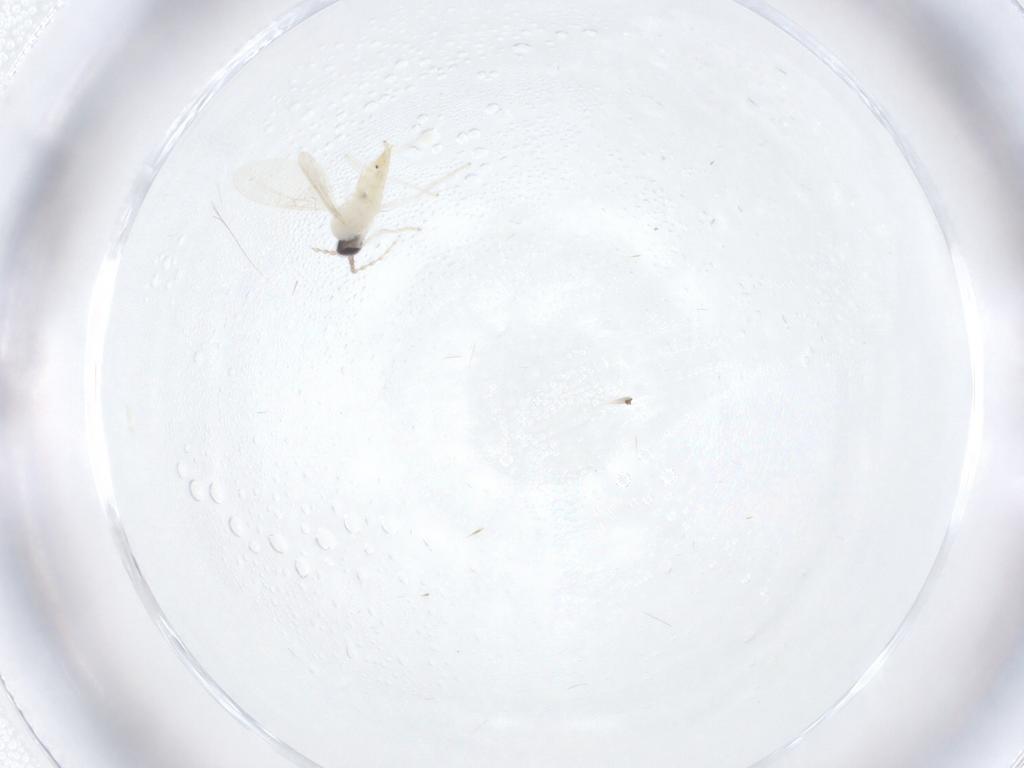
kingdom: Animalia
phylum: Arthropoda
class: Insecta
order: Diptera
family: Cecidomyiidae
